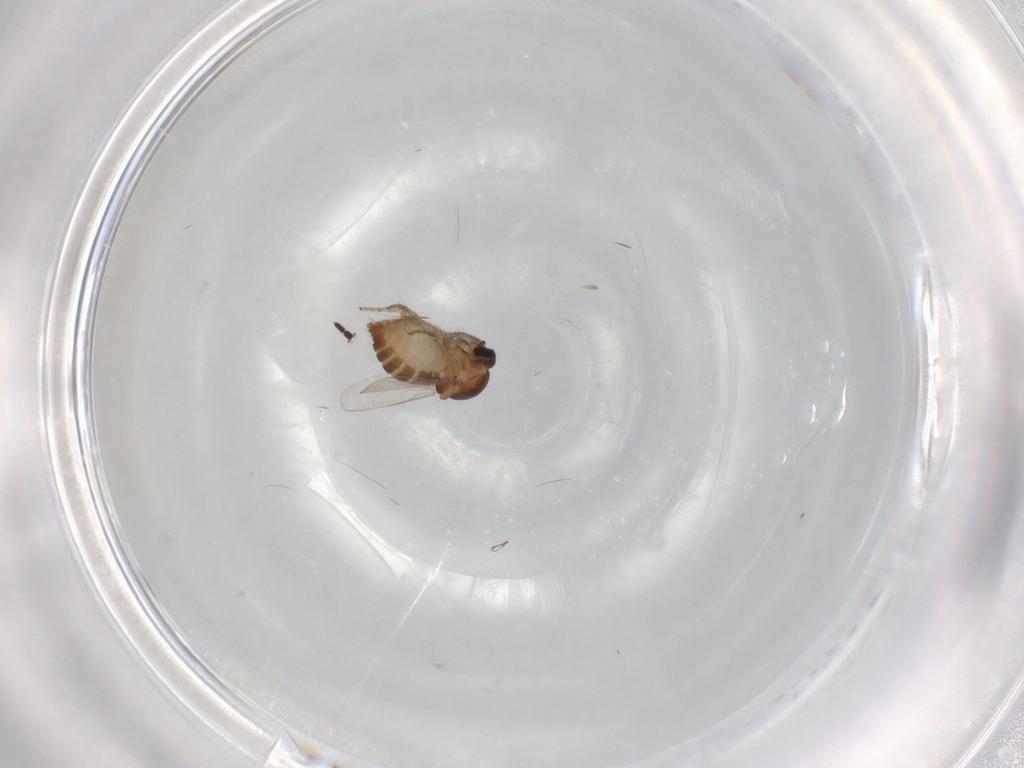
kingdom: Animalia
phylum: Arthropoda
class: Insecta
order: Diptera
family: Ceratopogonidae
